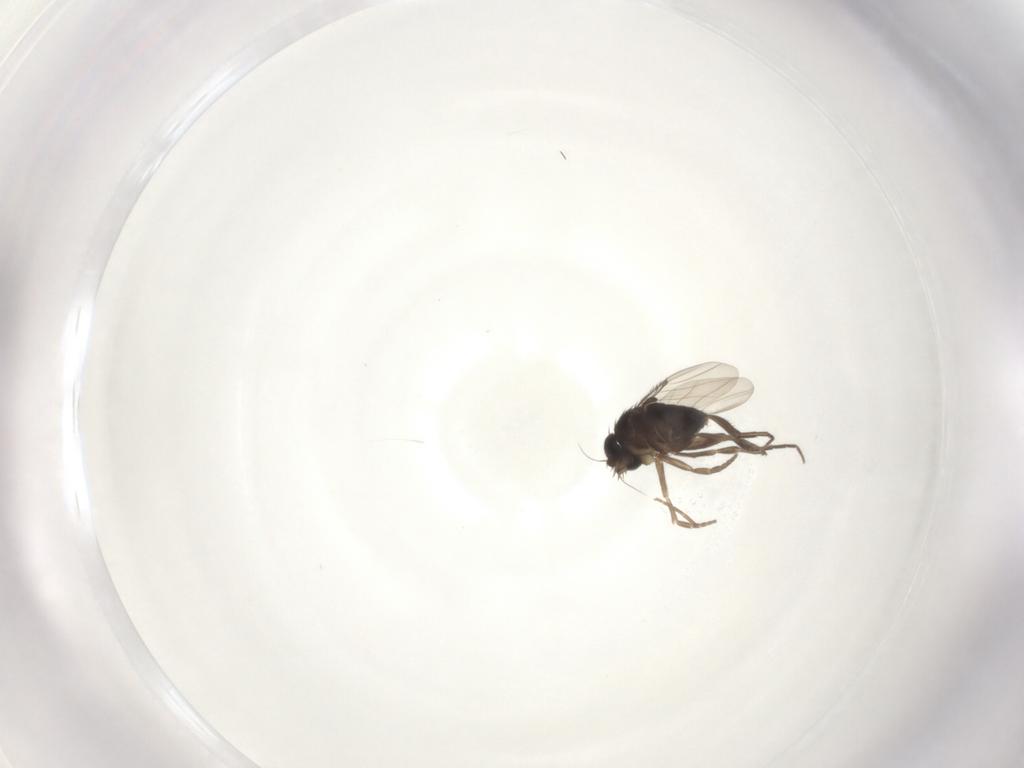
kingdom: Animalia
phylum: Arthropoda
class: Insecta
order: Diptera
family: Phoridae
